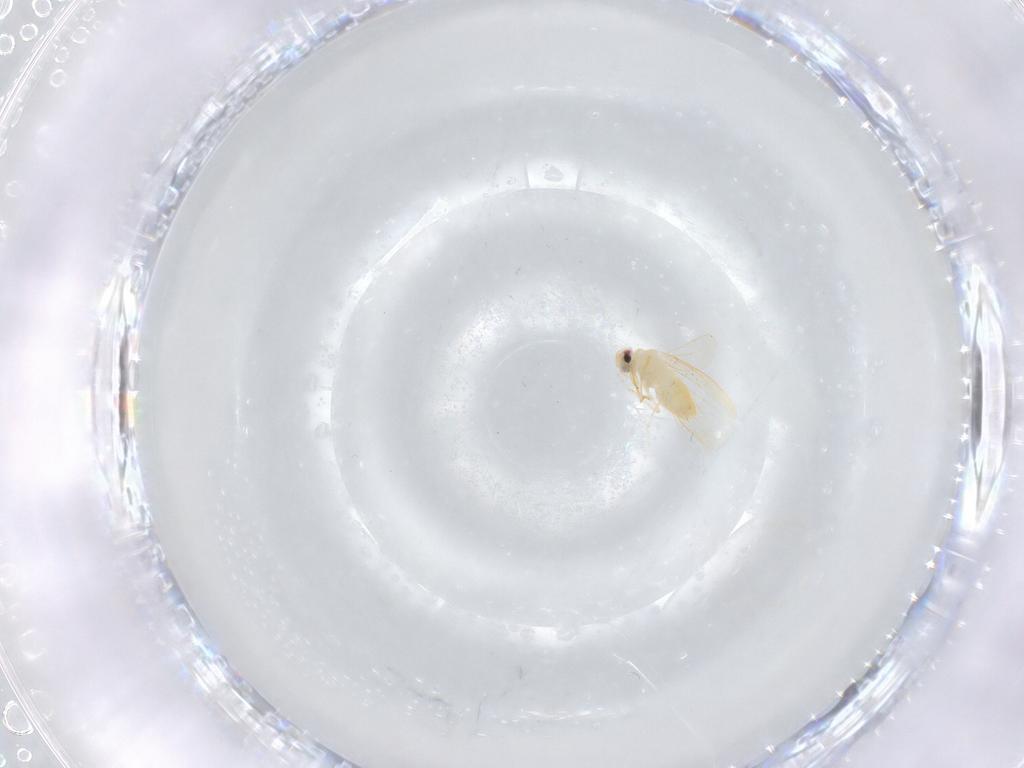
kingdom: Animalia
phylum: Arthropoda
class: Insecta
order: Hemiptera
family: Aleyrodidae
